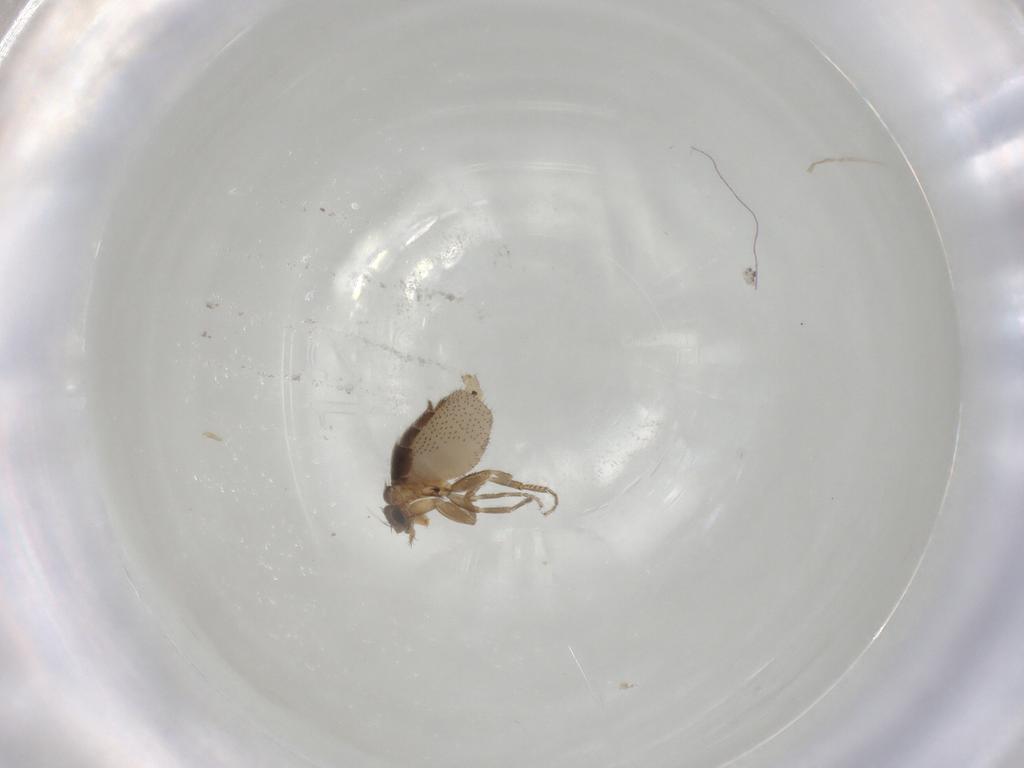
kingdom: Animalia
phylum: Arthropoda
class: Insecta
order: Diptera
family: Phoridae
